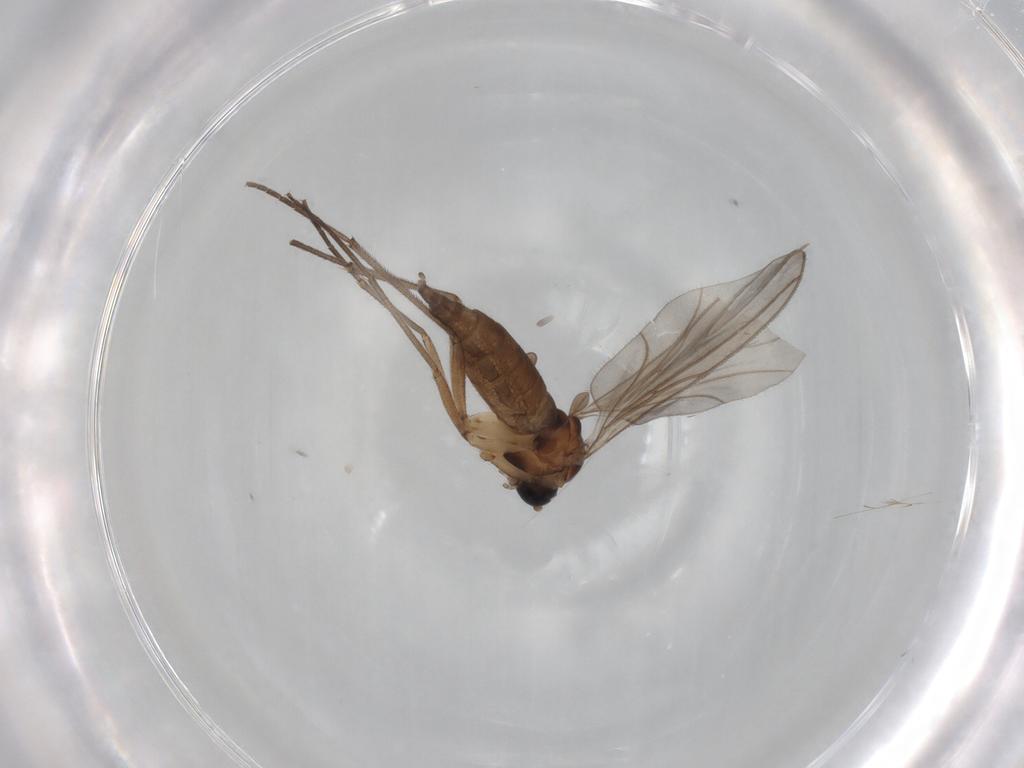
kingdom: Animalia
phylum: Arthropoda
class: Insecta
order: Diptera
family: Sciaridae
